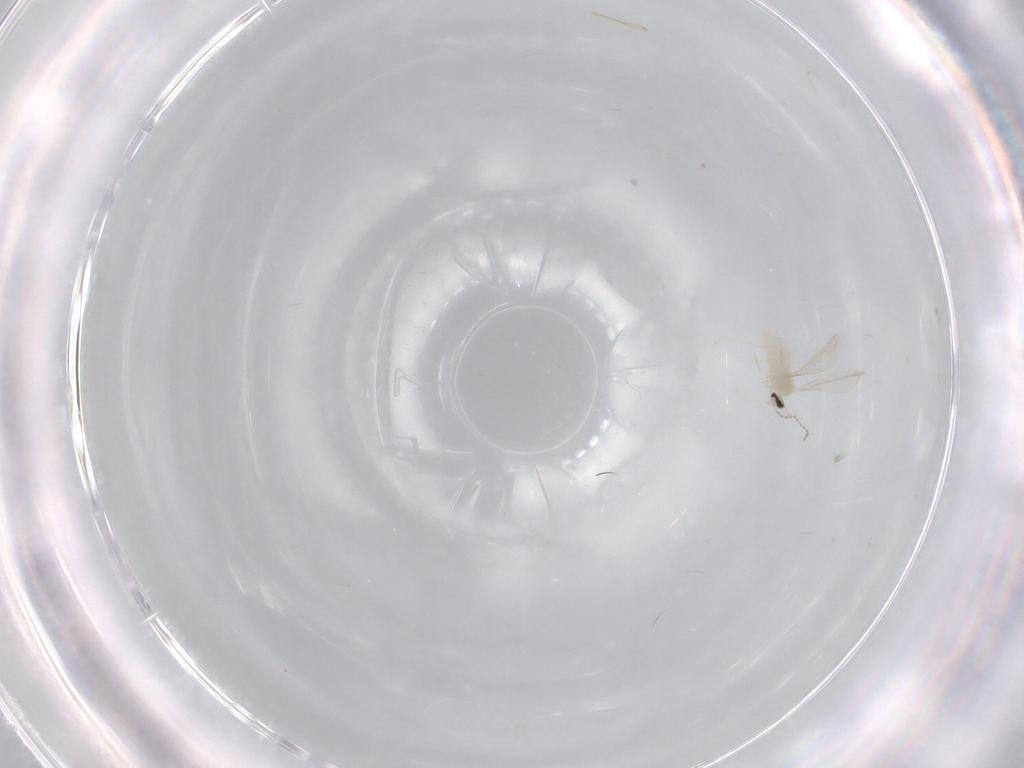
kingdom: Animalia
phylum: Arthropoda
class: Insecta
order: Diptera
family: Cecidomyiidae
